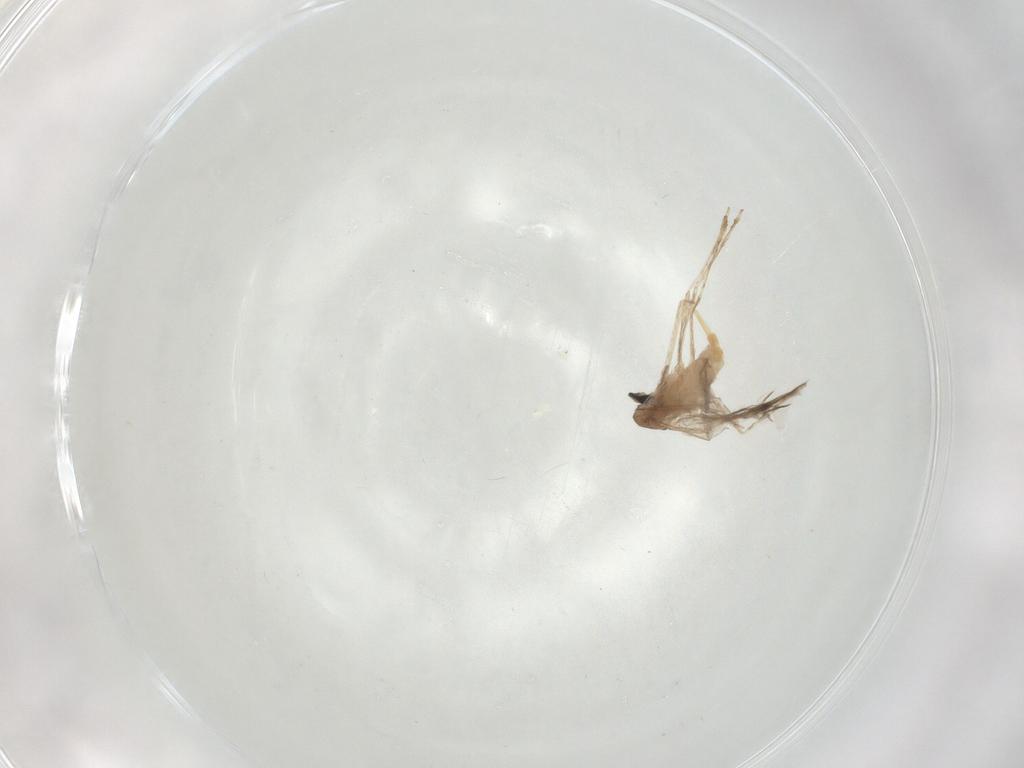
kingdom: Animalia
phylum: Arthropoda
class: Insecta
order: Diptera
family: Cecidomyiidae
